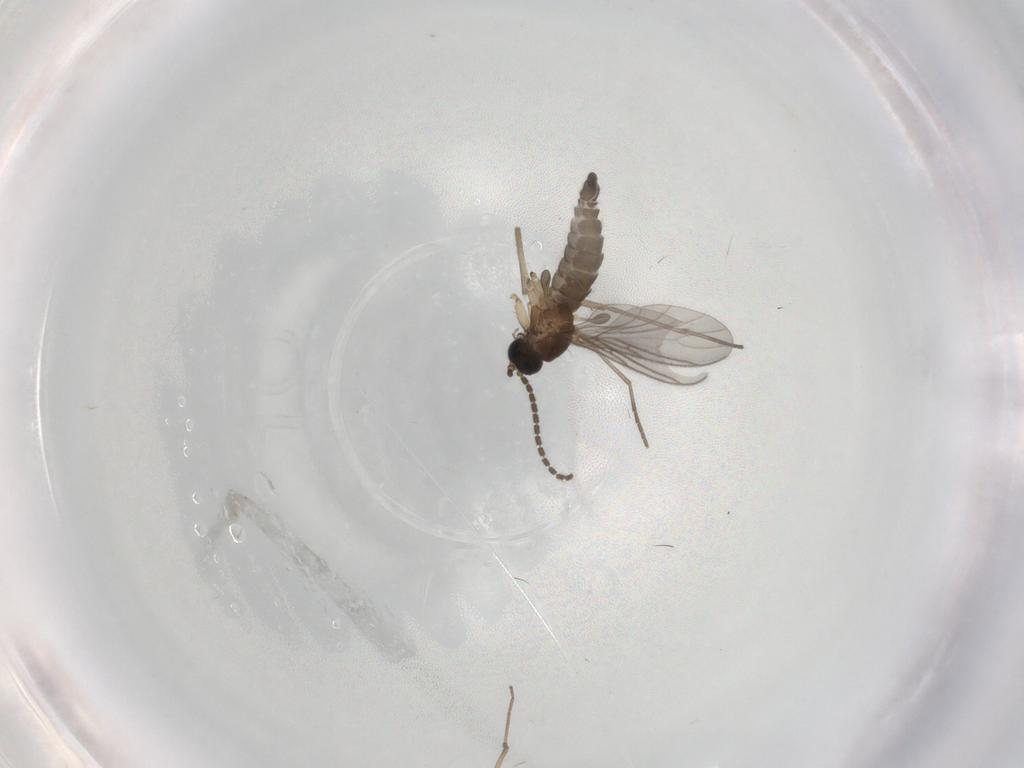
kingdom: Animalia
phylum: Arthropoda
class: Insecta
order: Diptera
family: Sciaridae
